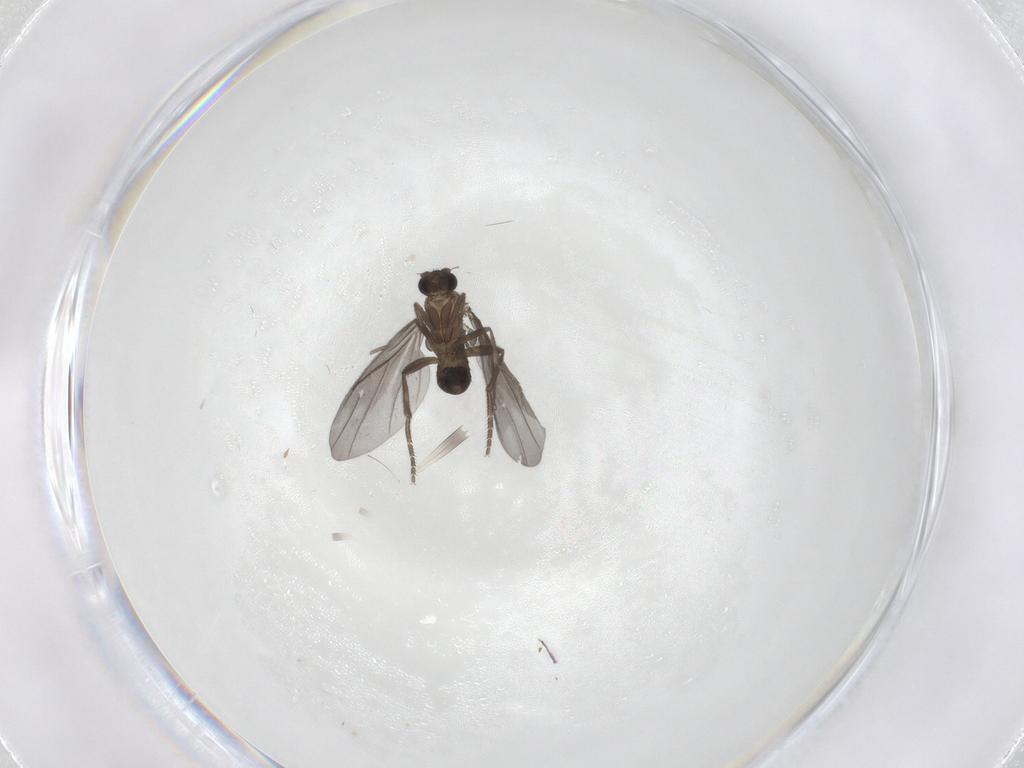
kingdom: Animalia
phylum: Arthropoda
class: Insecta
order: Diptera
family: Phoridae
